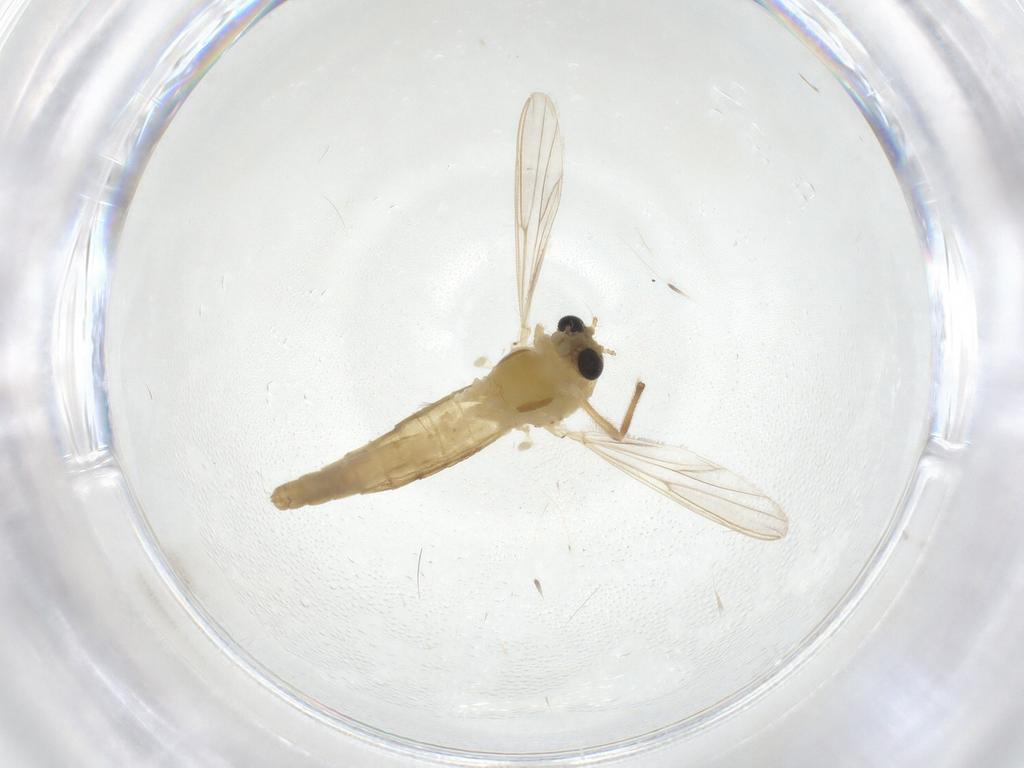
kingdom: Animalia
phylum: Arthropoda
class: Insecta
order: Diptera
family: Chironomidae
